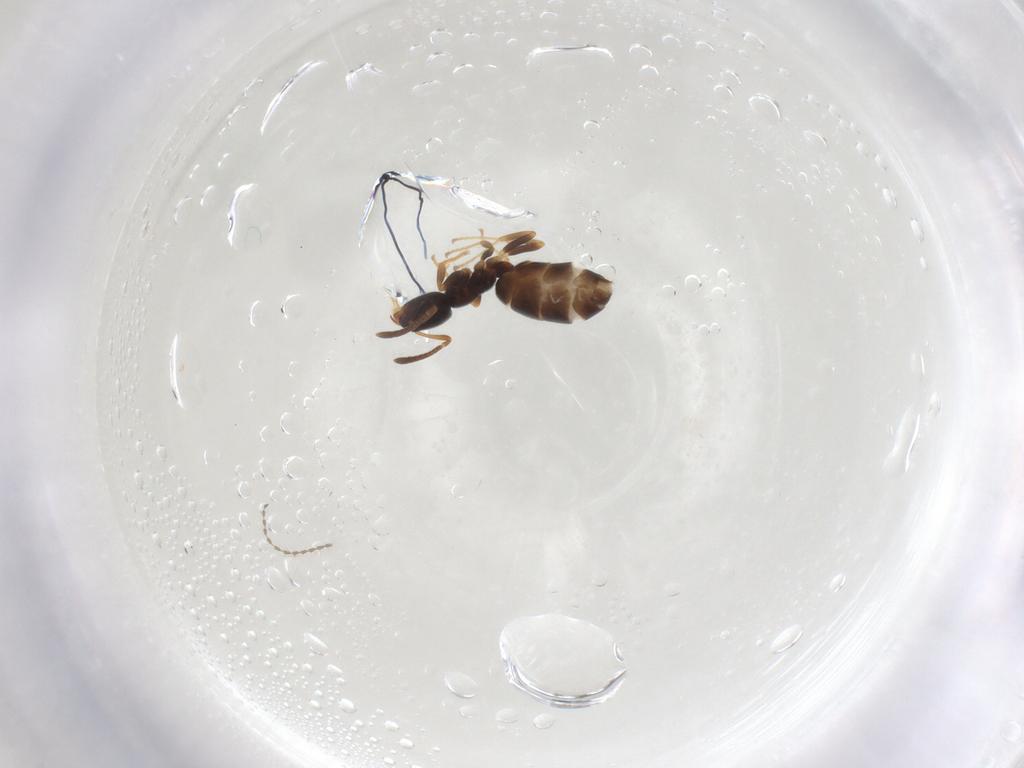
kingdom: Animalia
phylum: Arthropoda
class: Insecta
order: Hymenoptera
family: Formicidae
